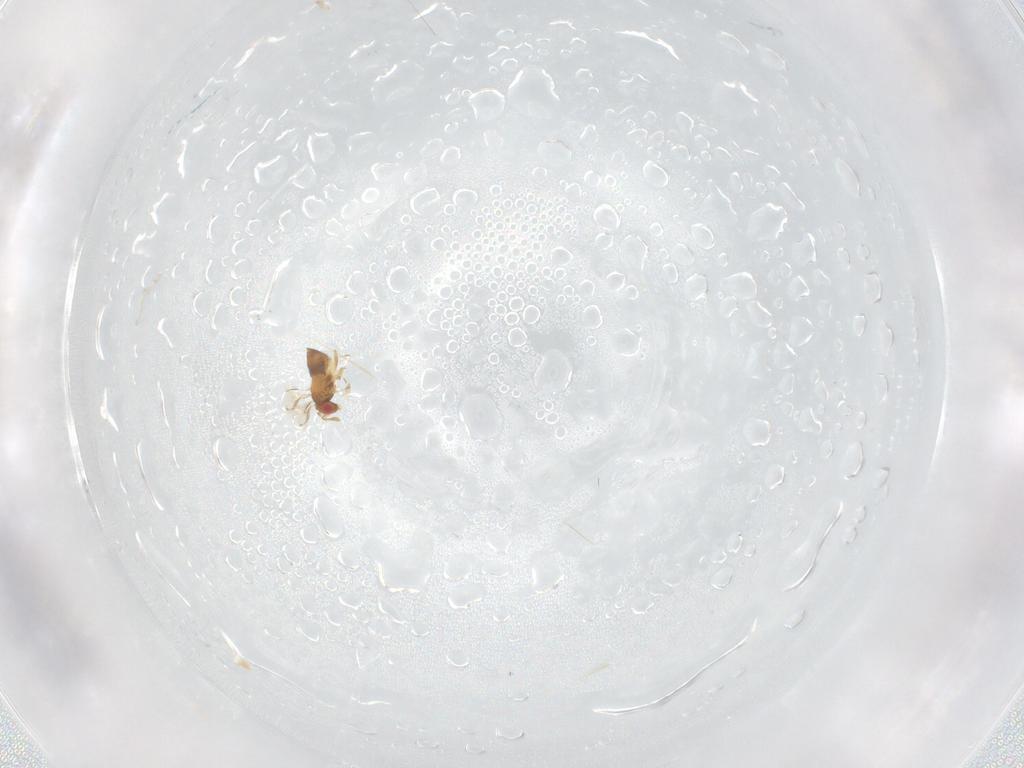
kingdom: Animalia
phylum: Arthropoda
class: Insecta
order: Hymenoptera
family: Trichogrammatidae
